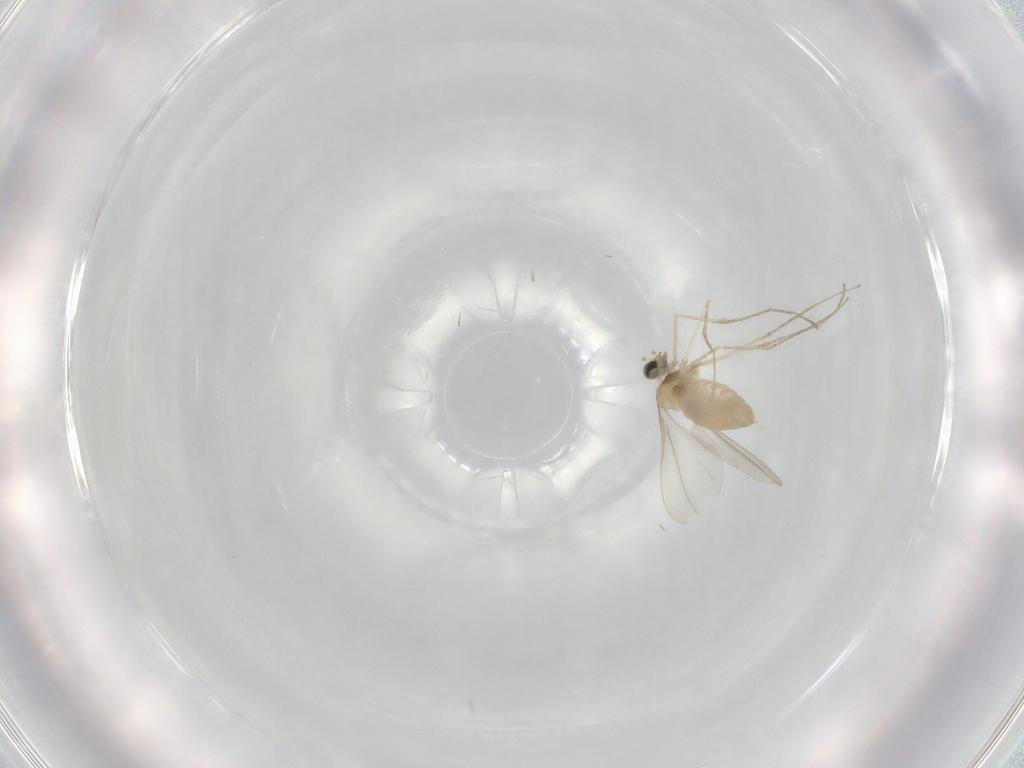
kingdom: Animalia
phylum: Arthropoda
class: Insecta
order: Diptera
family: Cecidomyiidae
